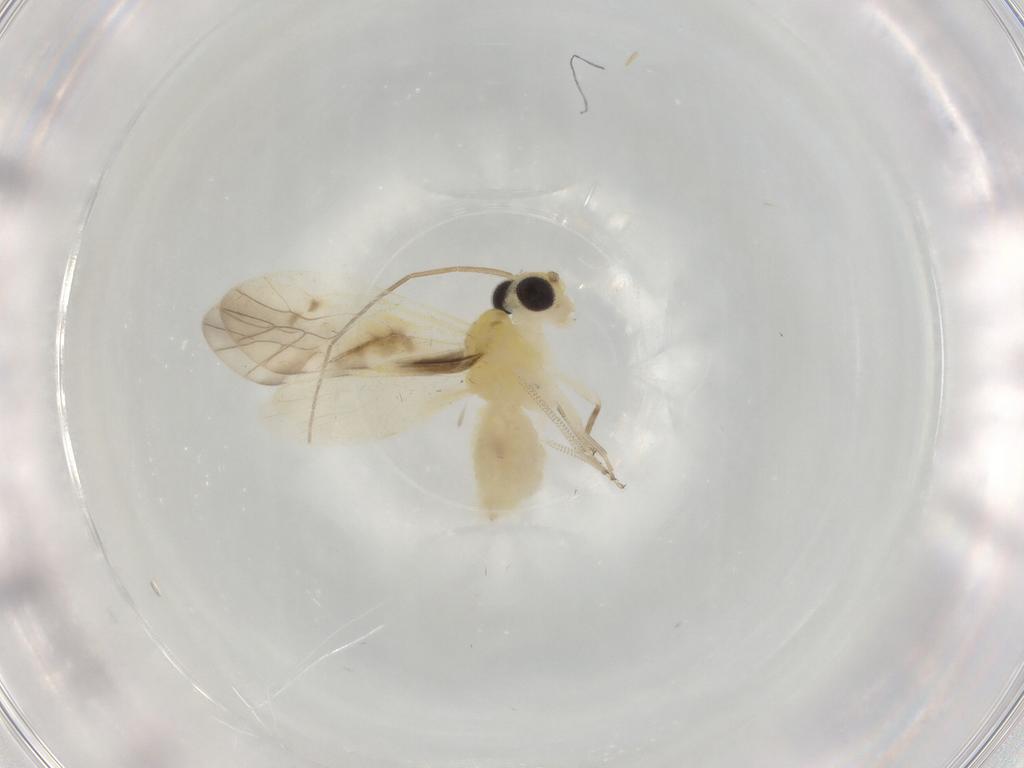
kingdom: Animalia
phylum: Arthropoda
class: Insecta
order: Psocodea
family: Caeciliusidae
